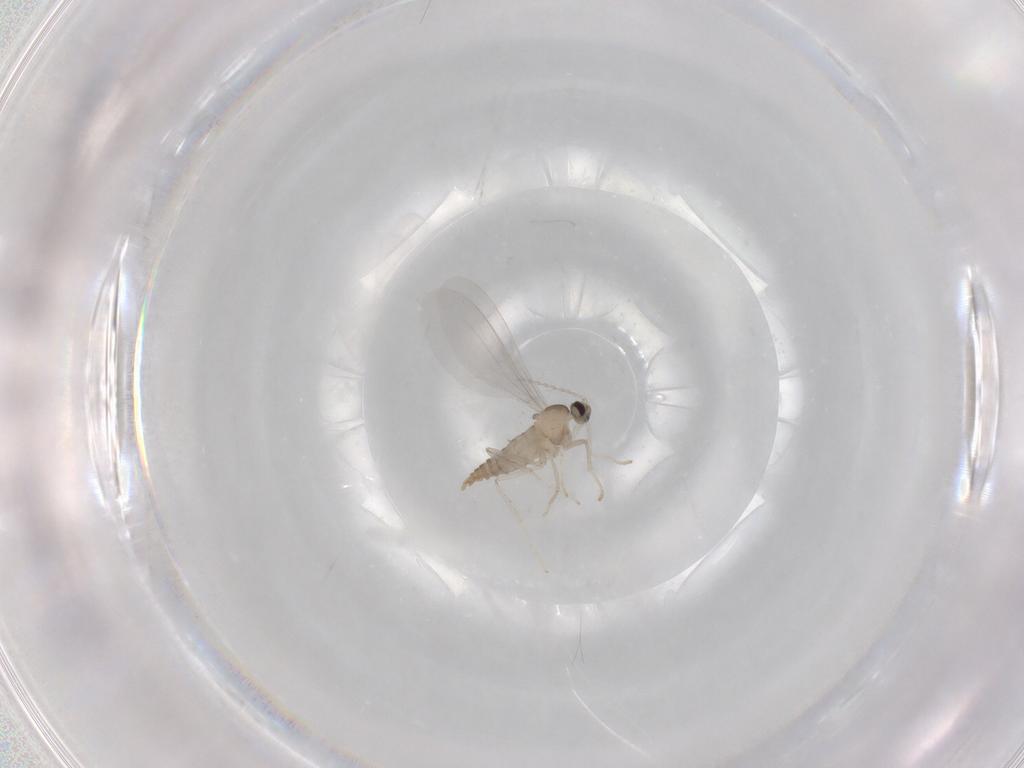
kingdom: Animalia
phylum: Arthropoda
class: Insecta
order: Diptera
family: Cecidomyiidae
